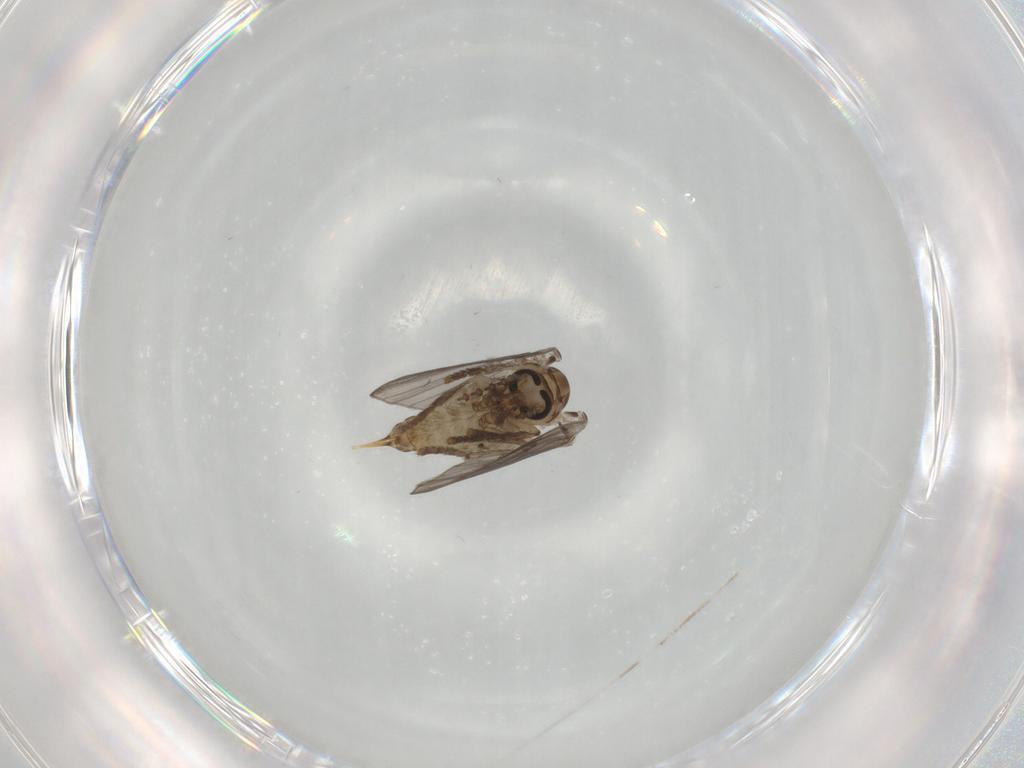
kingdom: Animalia
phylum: Arthropoda
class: Insecta
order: Diptera
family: Psychodidae
